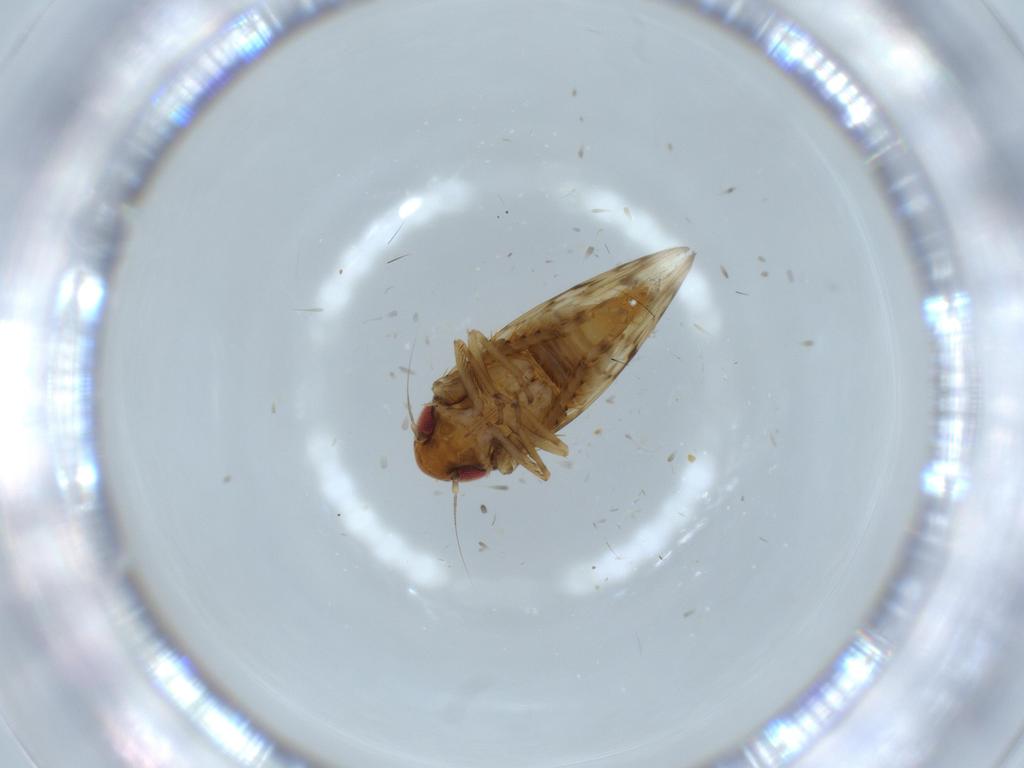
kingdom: Animalia
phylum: Arthropoda
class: Insecta
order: Hemiptera
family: Cicadellidae
